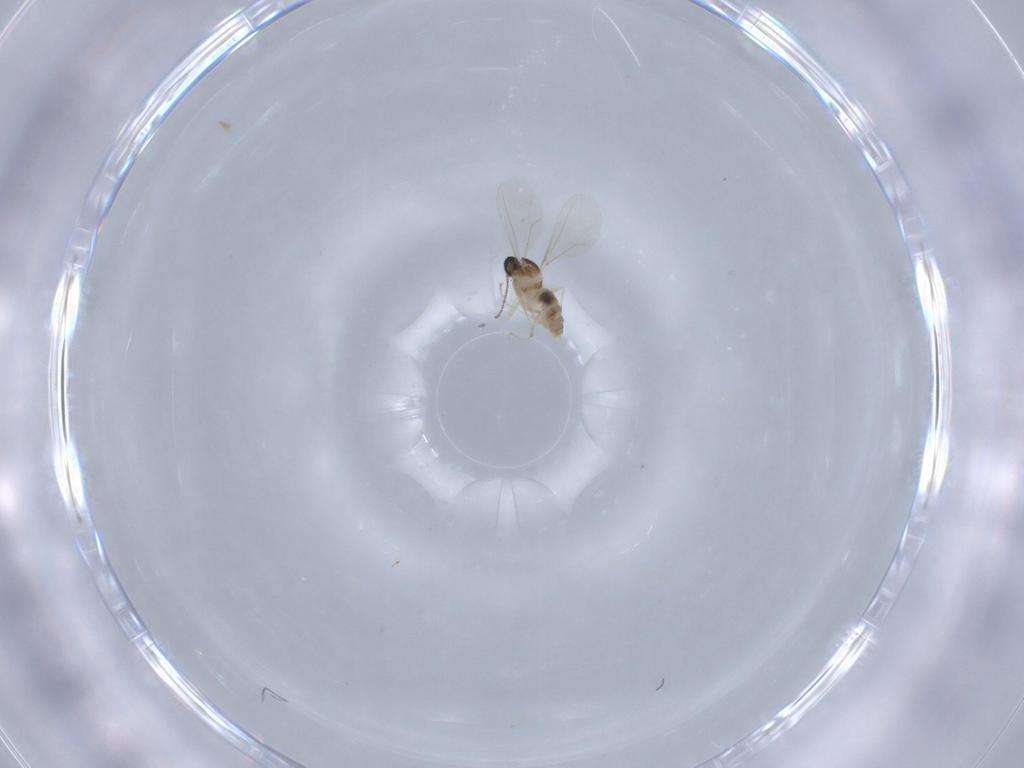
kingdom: Animalia
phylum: Arthropoda
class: Insecta
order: Diptera
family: Cecidomyiidae
